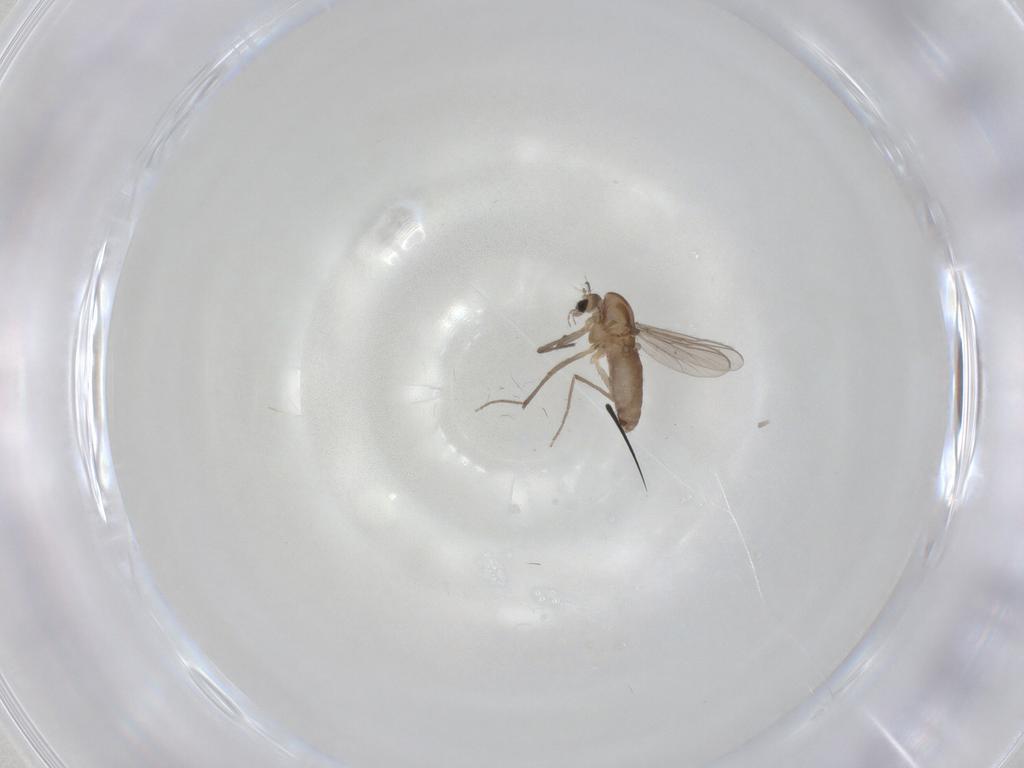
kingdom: Animalia
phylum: Arthropoda
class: Insecta
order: Diptera
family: Chironomidae
